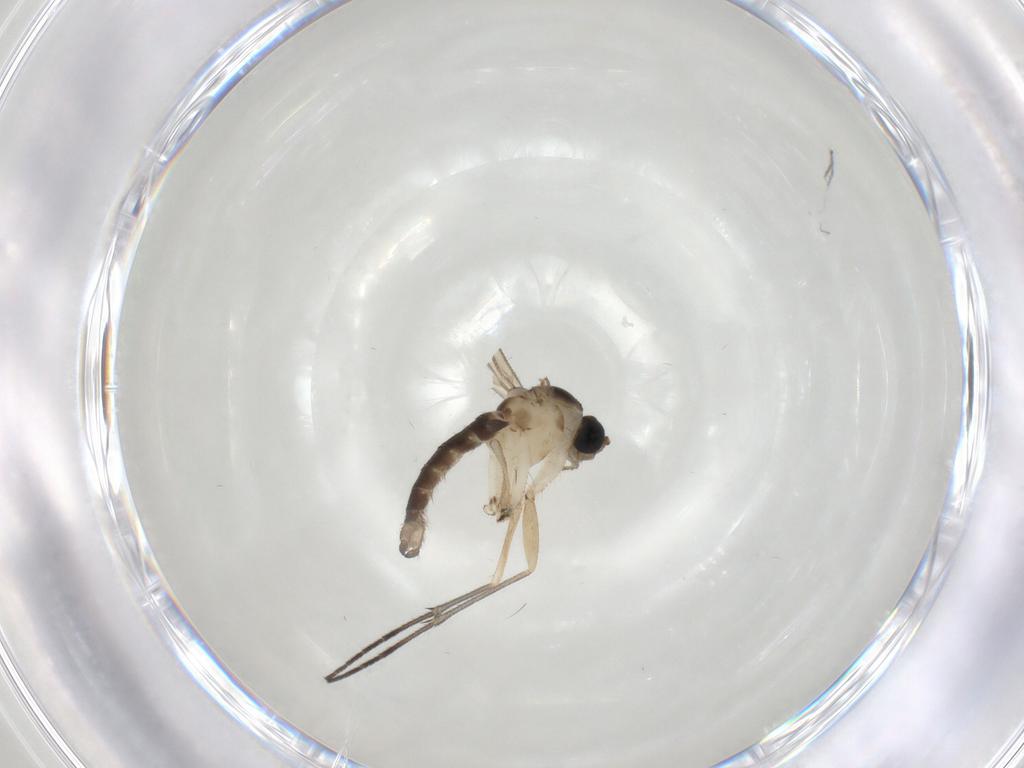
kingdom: Animalia
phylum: Arthropoda
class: Insecta
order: Diptera
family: Sciaridae
